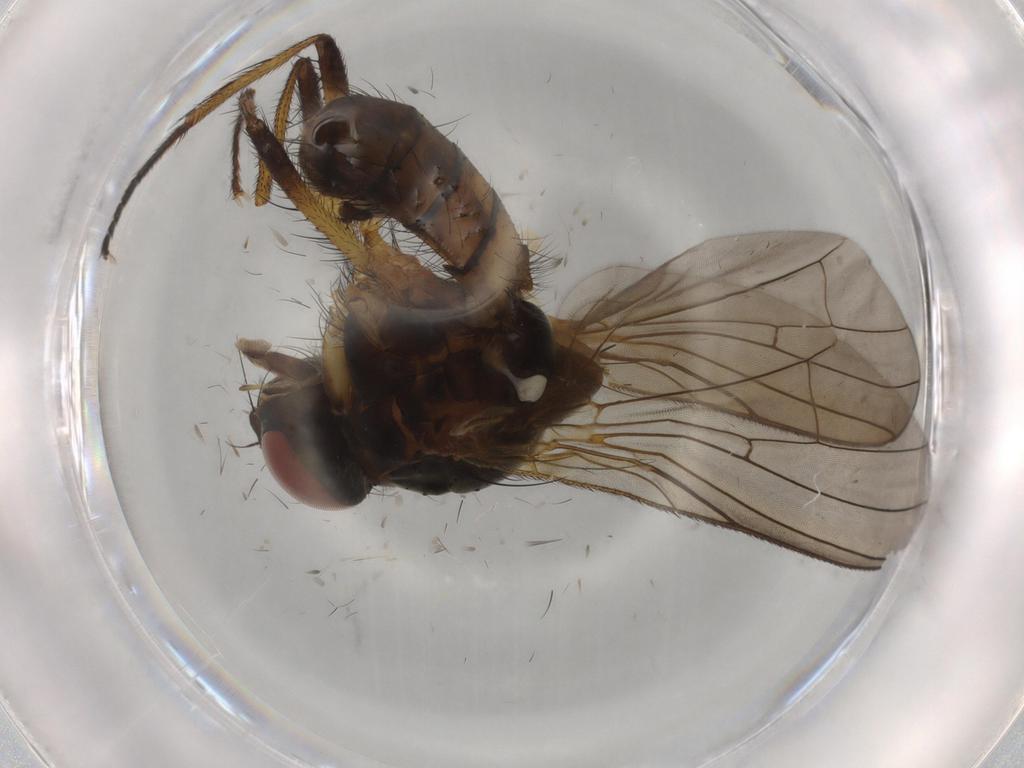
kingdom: Animalia
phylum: Arthropoda
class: Insecta
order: Diptera
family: Anthomyiidae
